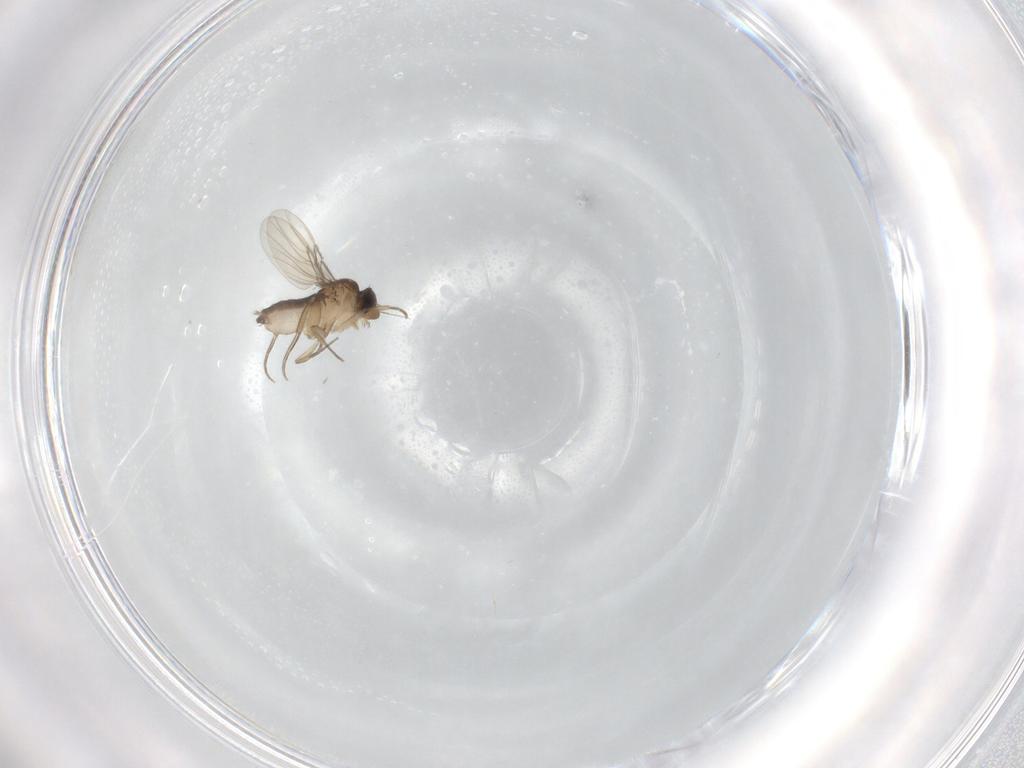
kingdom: Animalia
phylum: Arthropoda
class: Insecta
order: Diptera
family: Phoridae
